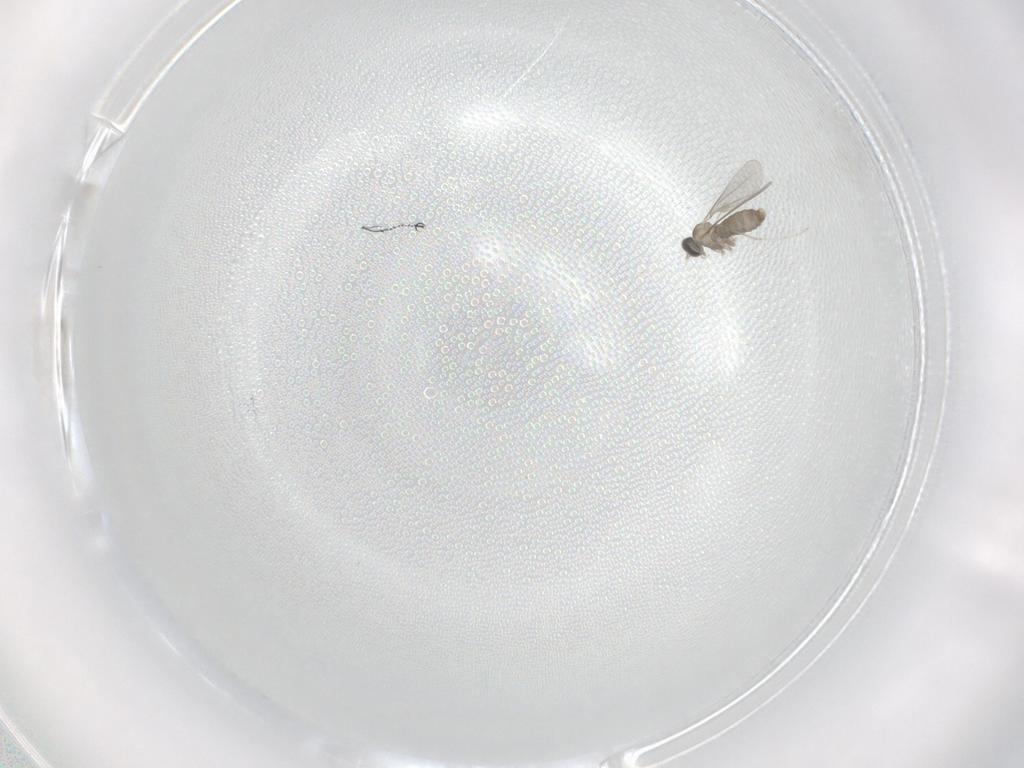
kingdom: Animalia
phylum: Arthropoda
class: Insecta
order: Diptera
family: Cecidomyiidae
